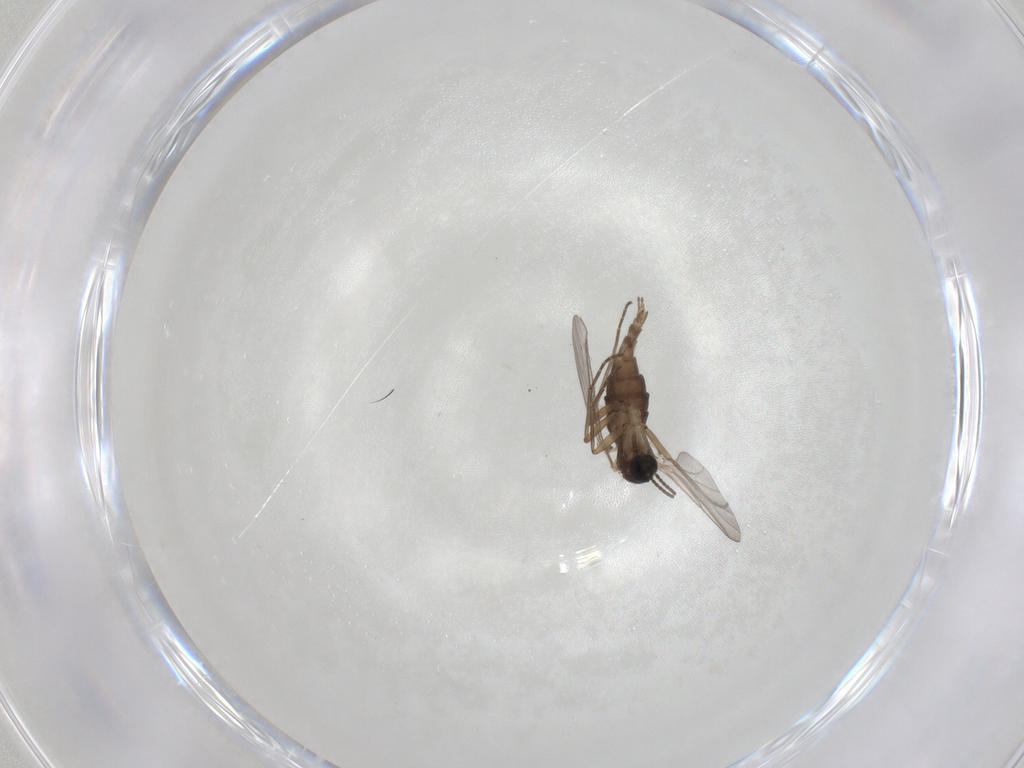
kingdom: Animalia
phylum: Arthropoda
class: Insecta
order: Diptera
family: Sciaridae
